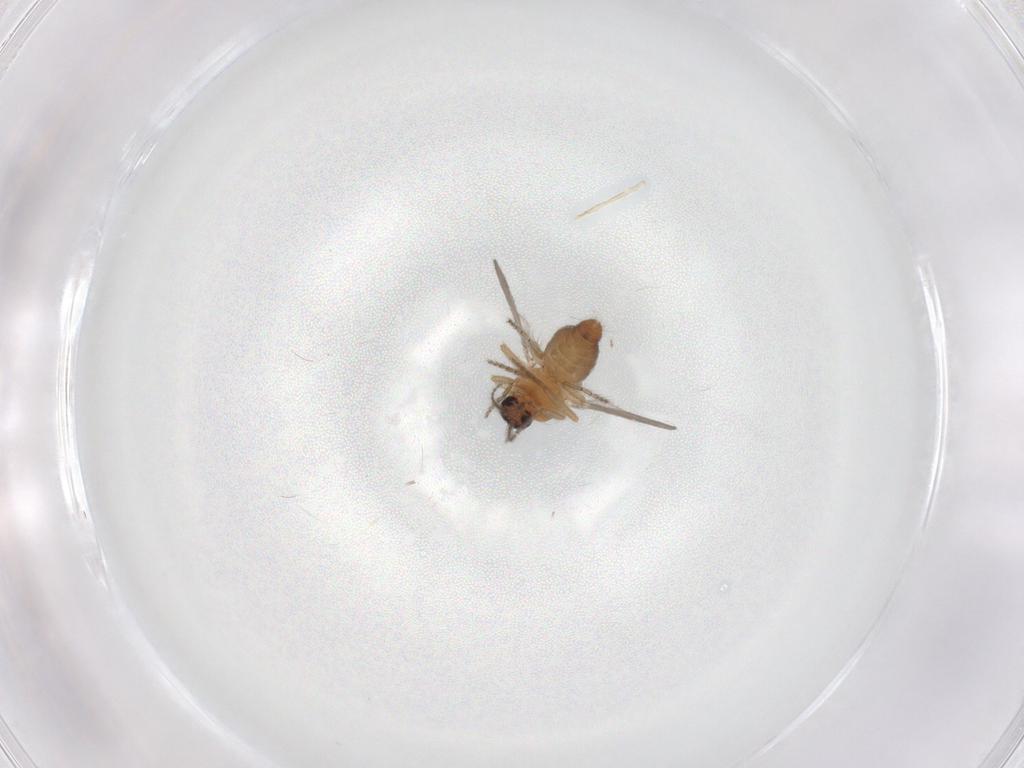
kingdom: Animalia
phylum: Arthropoda
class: Insecta
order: Diptera
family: Ceratopogonidae
